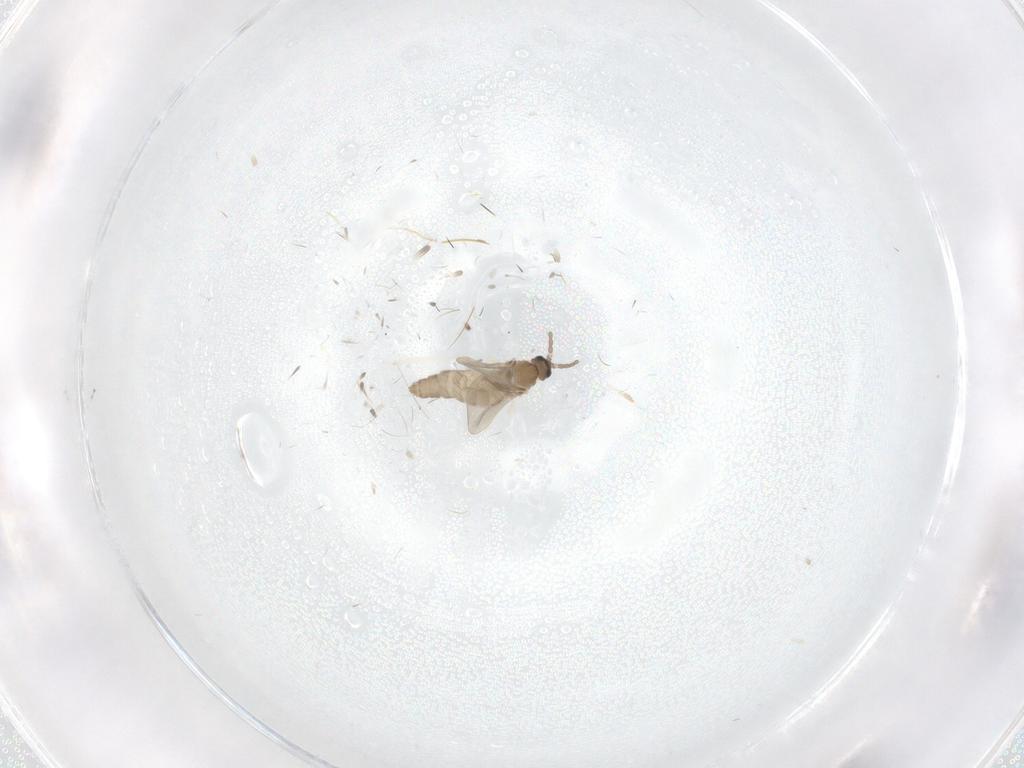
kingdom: Animalia
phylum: Arthropoda
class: Insecta
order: Diptera
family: Cecidomyiidae
